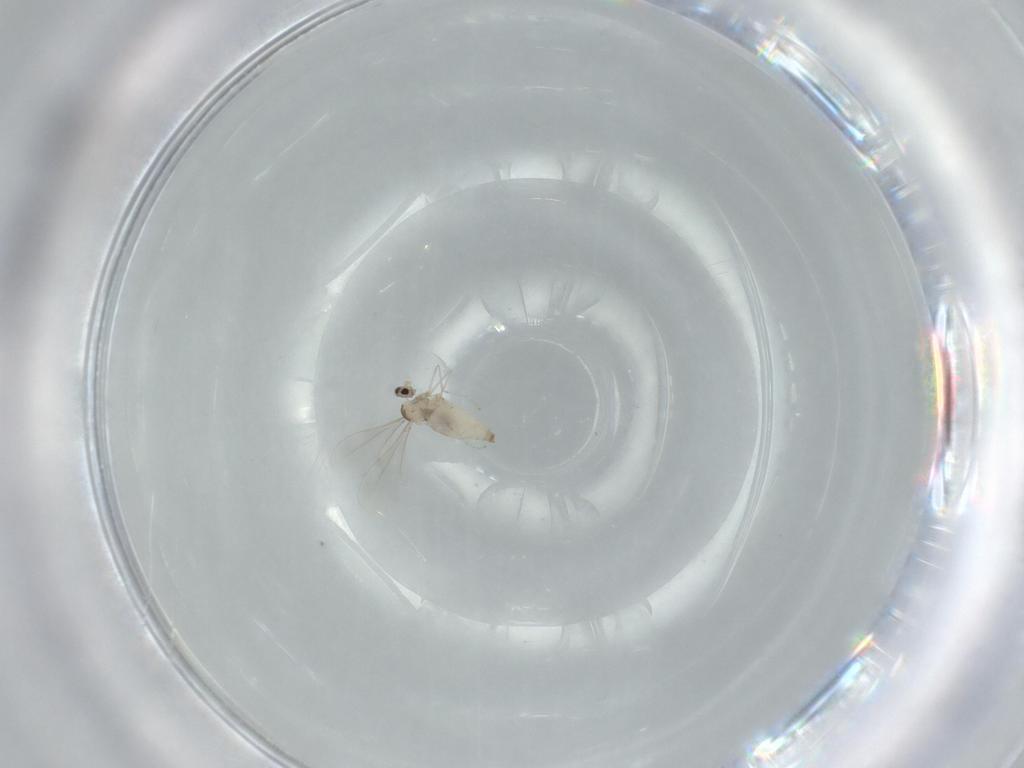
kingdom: Animalia
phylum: Arthropoda
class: Insecta
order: Diptera
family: Cecidomyiidae
